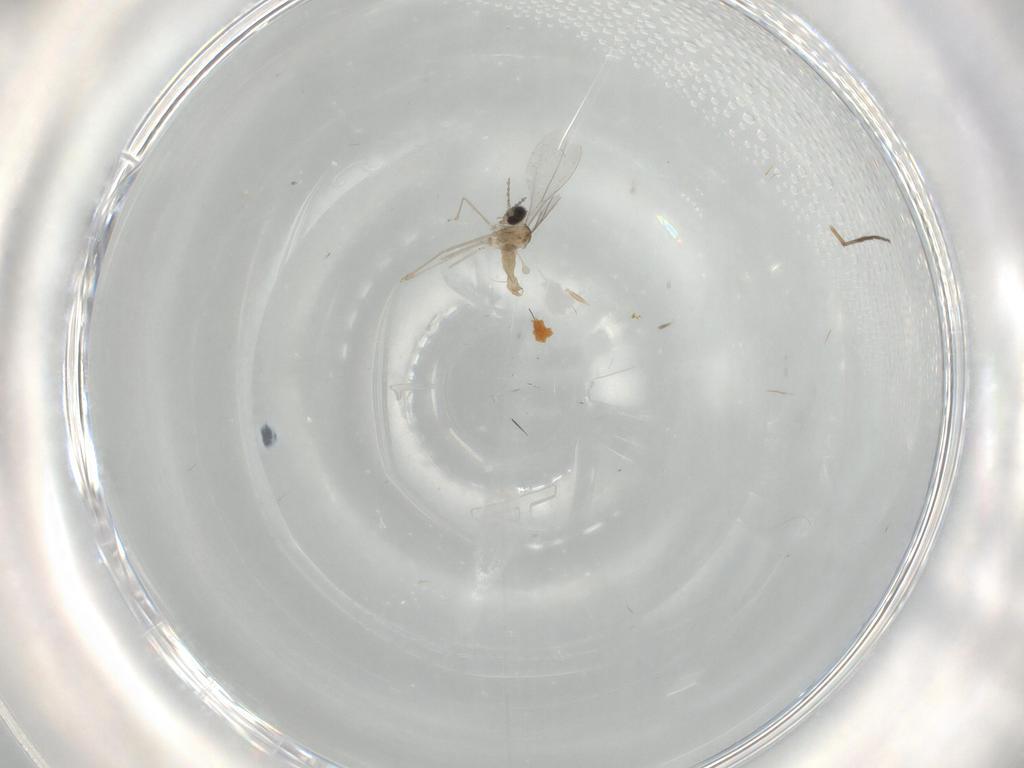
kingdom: Animalia
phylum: Arthropoda
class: Insecta
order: Diptera
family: Cecidomyiidae
